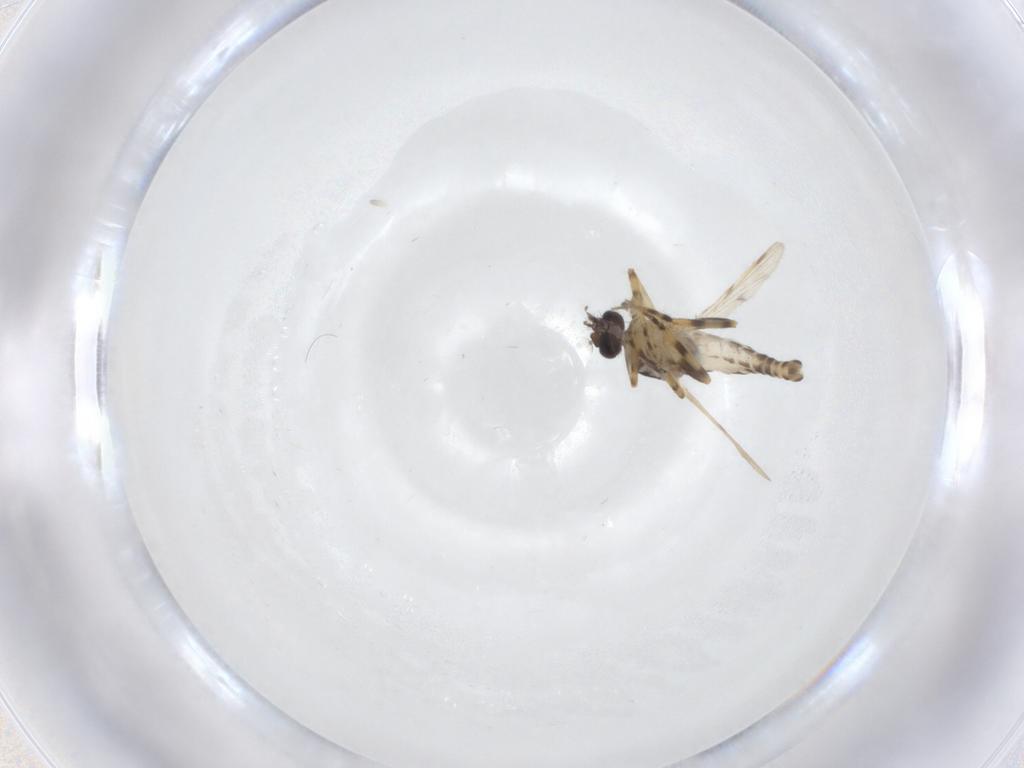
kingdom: Animalia
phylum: Arthropoda
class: Insecta
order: Diptera
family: Ceratopogonidae
